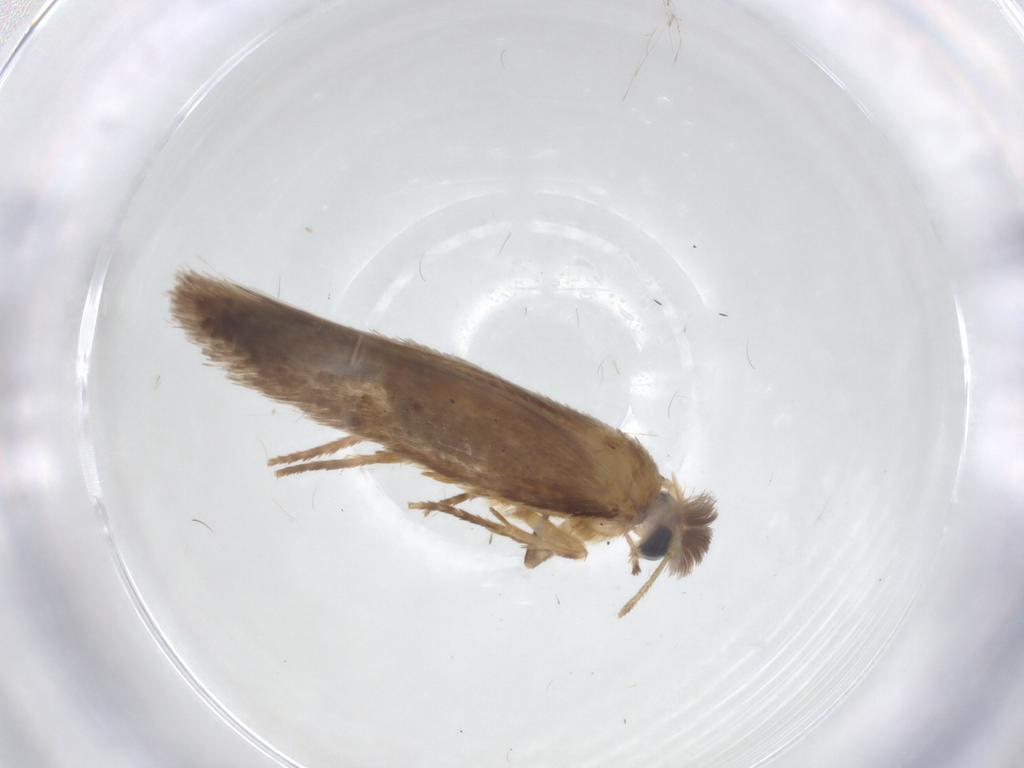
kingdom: Animalia
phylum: Arthropoda
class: Insecta
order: Lepidoptera
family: Nepticulidae
